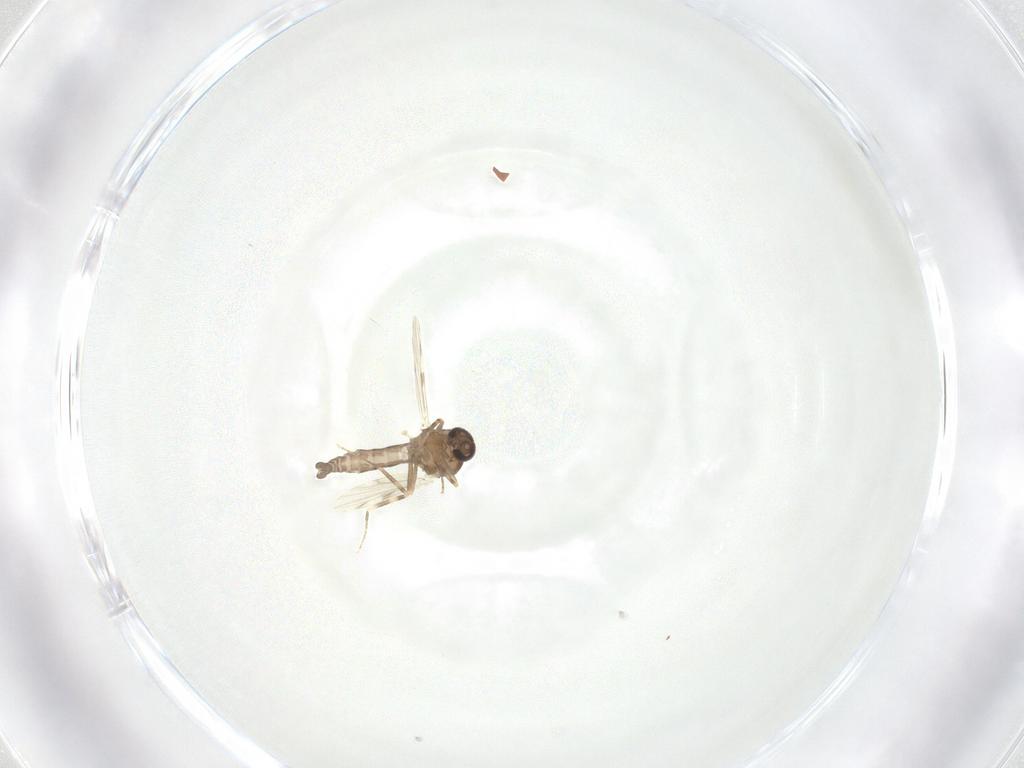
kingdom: Animalia
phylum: Arthropoda
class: Insecta
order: Diptera
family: Ceratopogonidae
